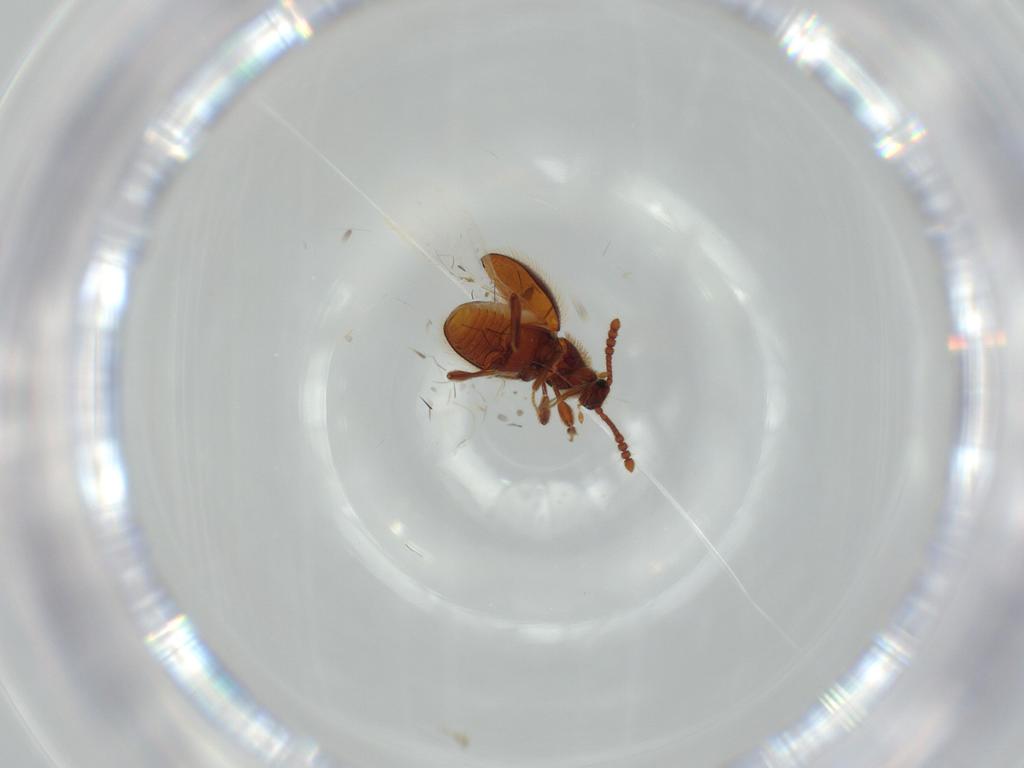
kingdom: Animalia
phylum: Arthropoda
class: Insecta
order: Coleoptera
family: Staphylinidae
